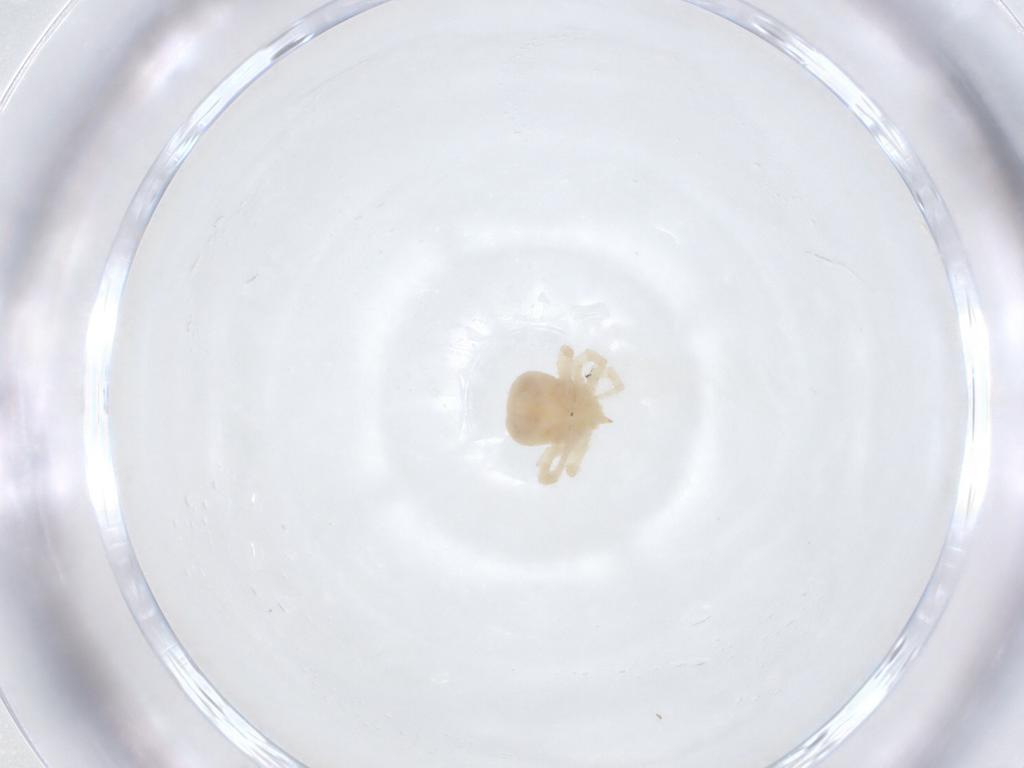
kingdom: Animalia
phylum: Arthropoda
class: Arachnida
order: Trombidiformes
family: Anystidae
